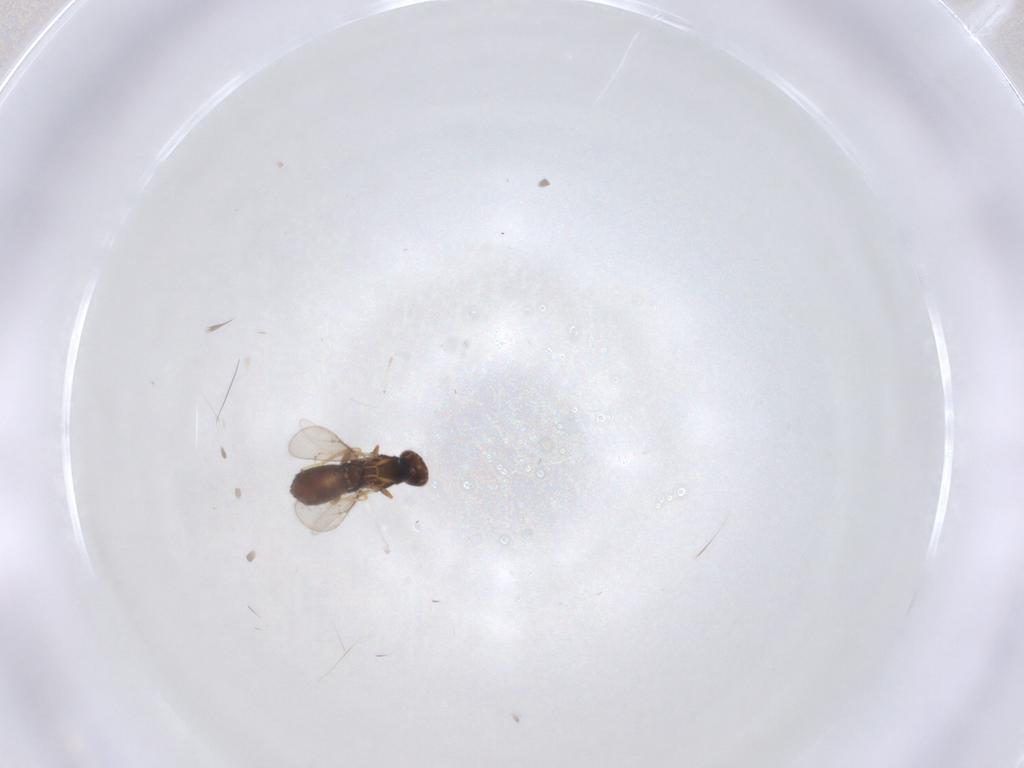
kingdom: Animalia
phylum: Arthropoda
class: Insecta
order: Hymenoptera
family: Eulophidae
